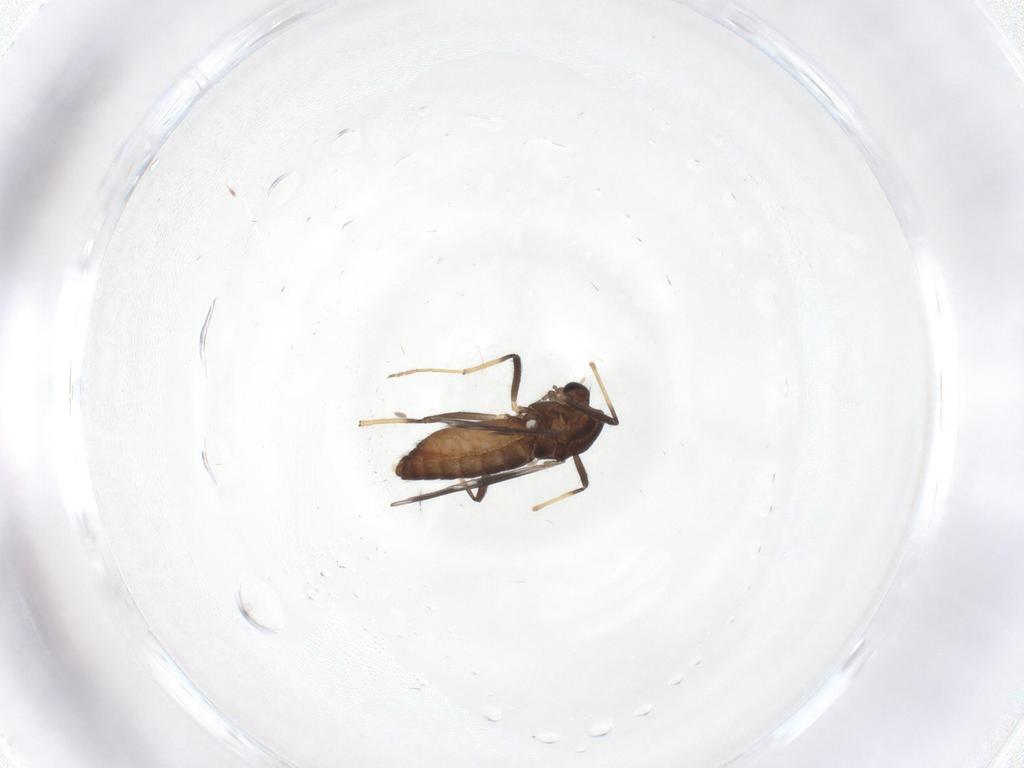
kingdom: Animalia
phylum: Arthropoda
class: Insecta
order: Diptera
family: Chironomidae
